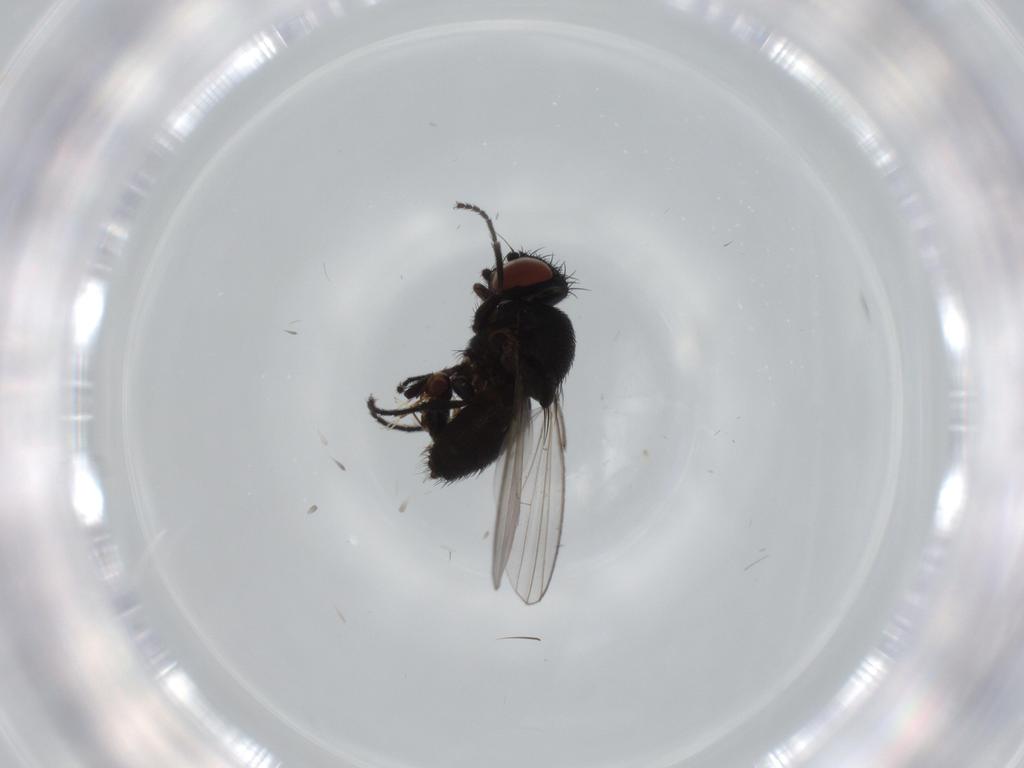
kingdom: Animalia
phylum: Arthropoda
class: Insecta
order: Diptera
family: Milichiidae
